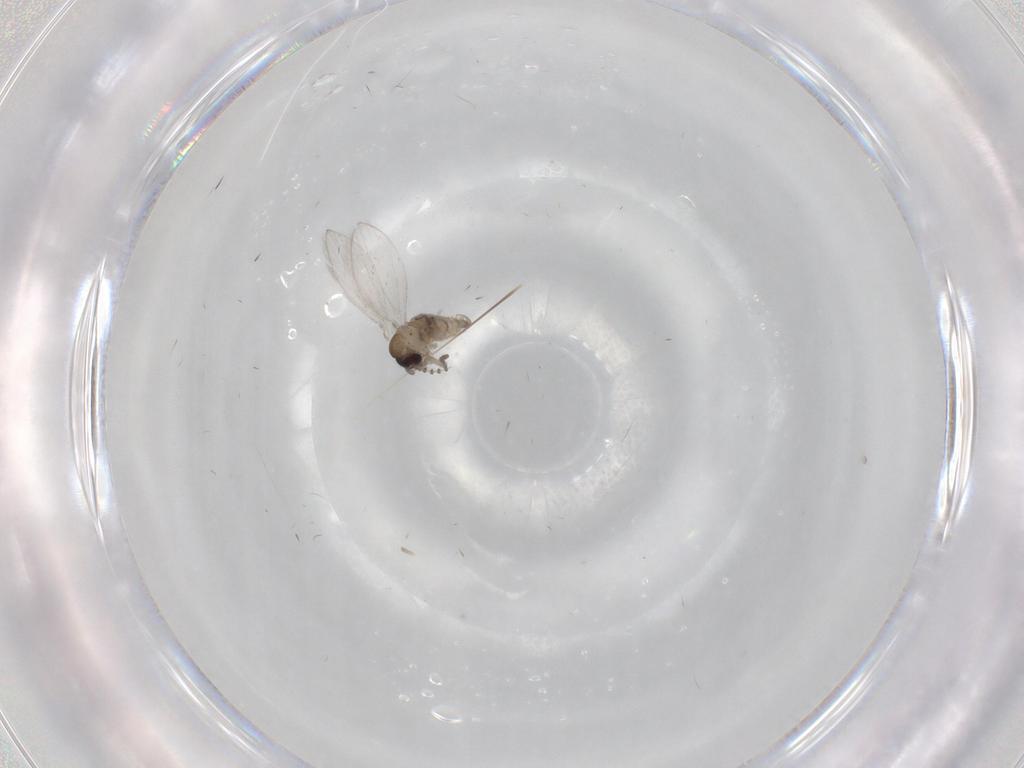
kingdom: Animalia
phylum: Arthropoda
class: Insecta
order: Diptera
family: Psychodidae
